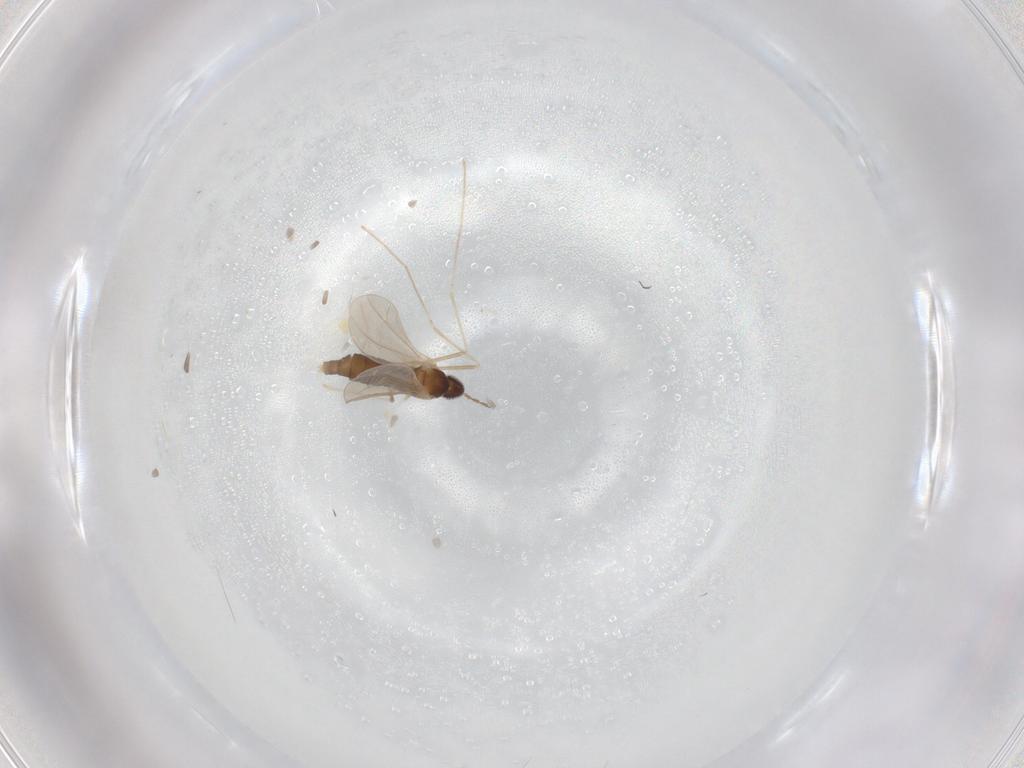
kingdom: Animalia
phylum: Arthropoda
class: Insecta
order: Diptera
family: Cecidomyiidae
